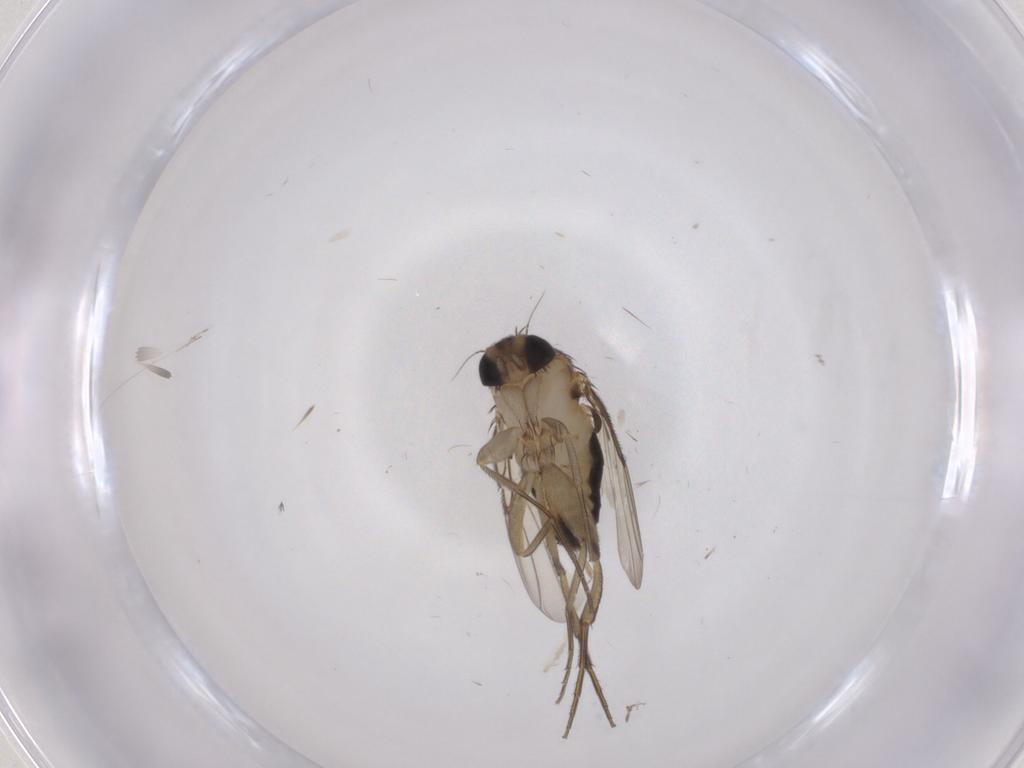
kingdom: Animalia
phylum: Arthropoda
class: Insecta
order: Diptera
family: Phoridae
